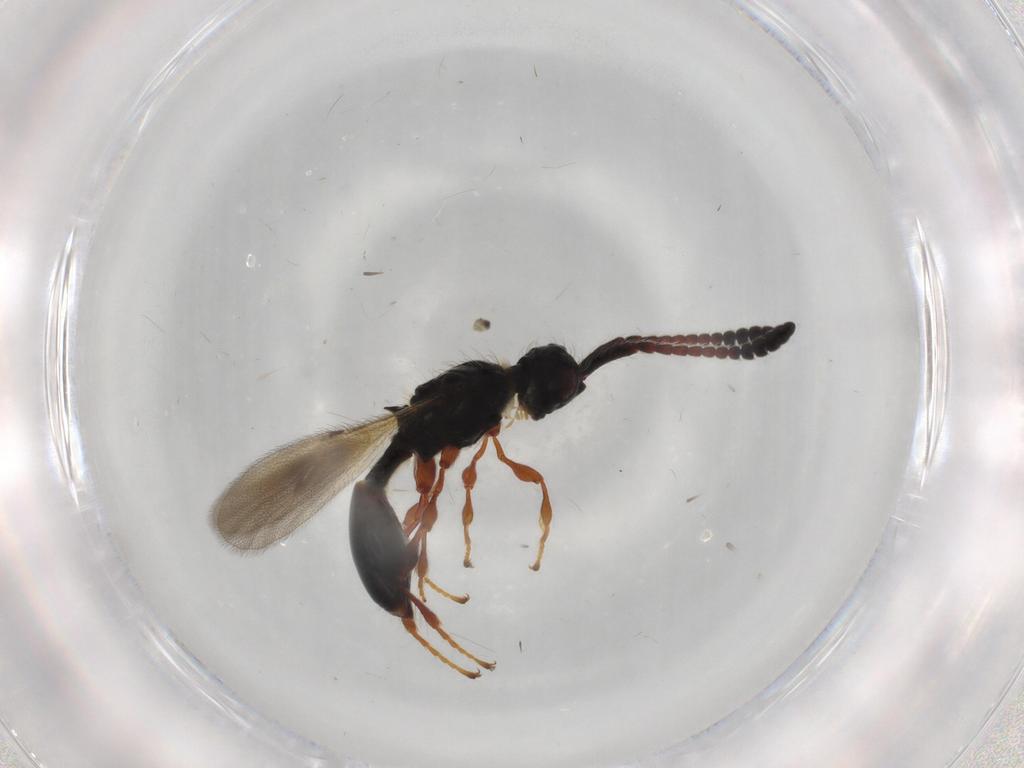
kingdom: Animalia
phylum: Arthropoda
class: Insecta
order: Hymenoptera
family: Diapriidae
